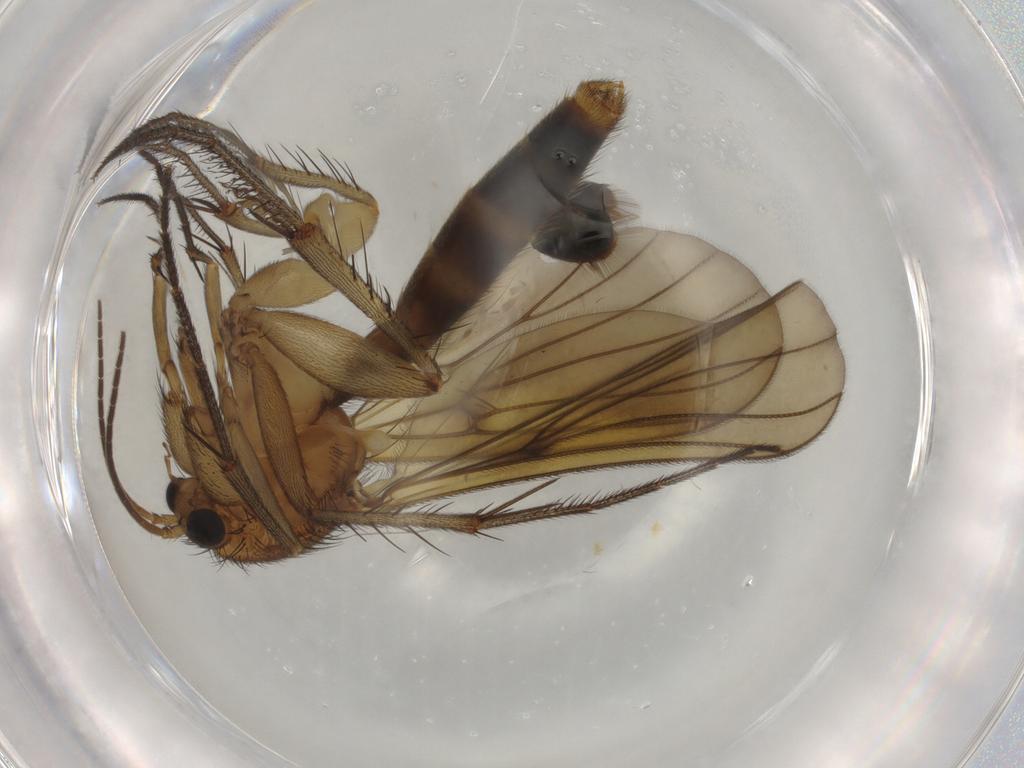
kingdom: Animalia
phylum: Arthropoda
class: Insecta
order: Diptera
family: Mycetophilidae
